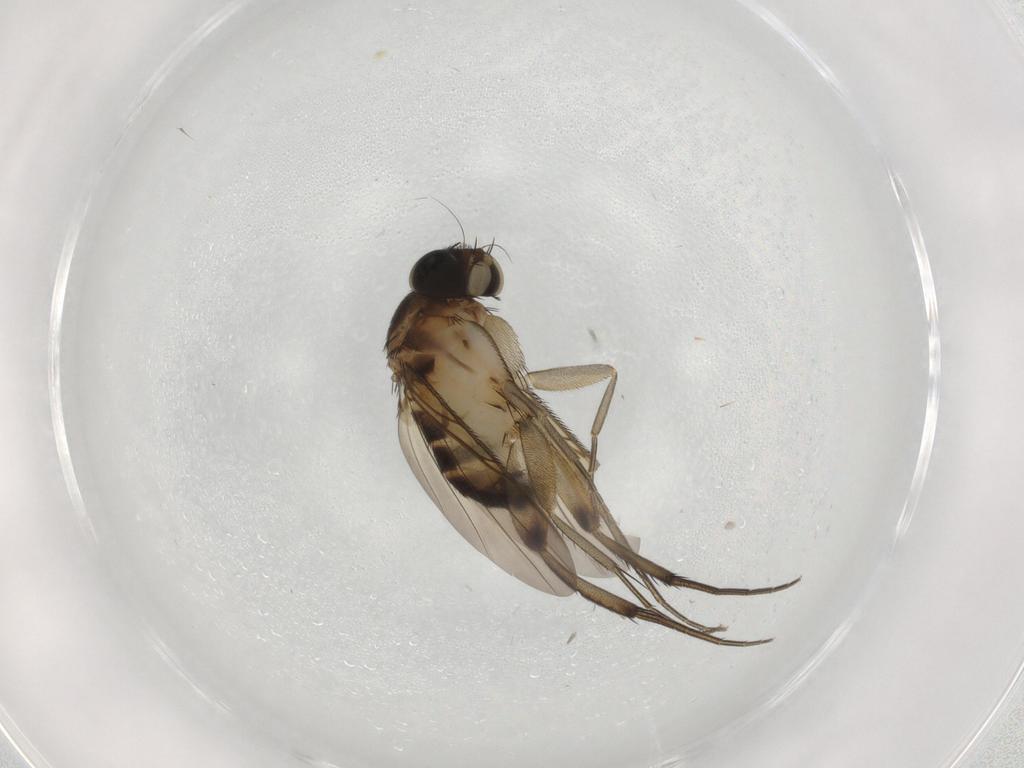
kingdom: Animalia
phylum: Arthropoda
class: Insecta
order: Diptera
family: Phoridae
